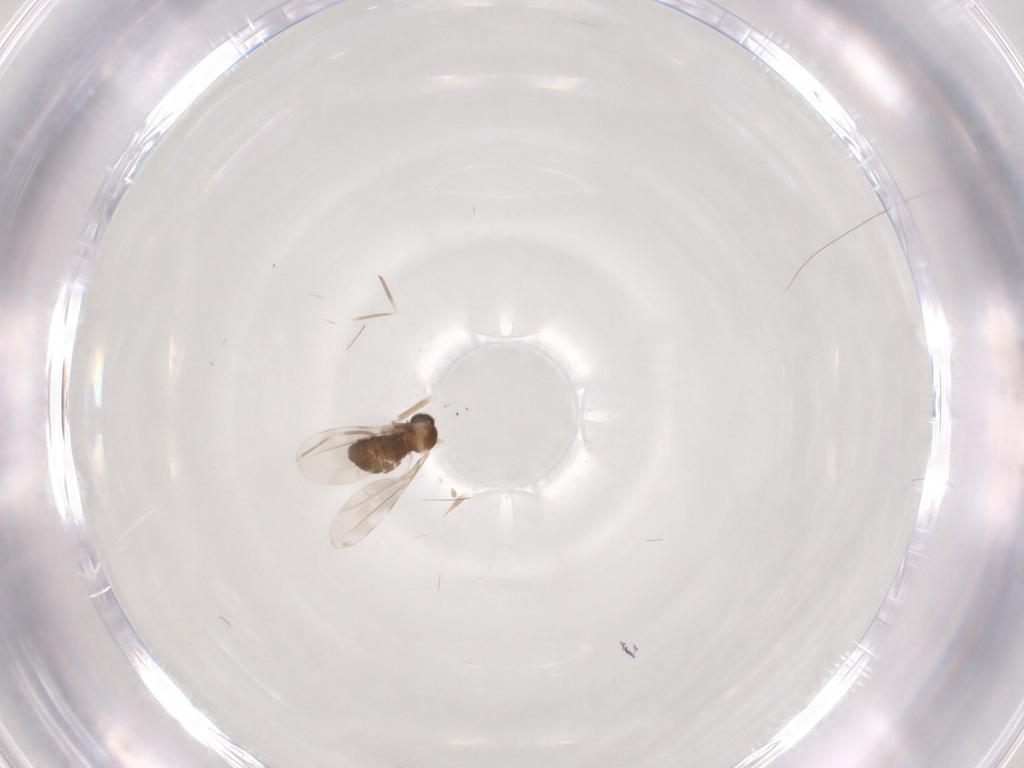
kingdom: Animalia
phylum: Arthropoda
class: Insecta
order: Diptera
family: Cecidomyiidae
